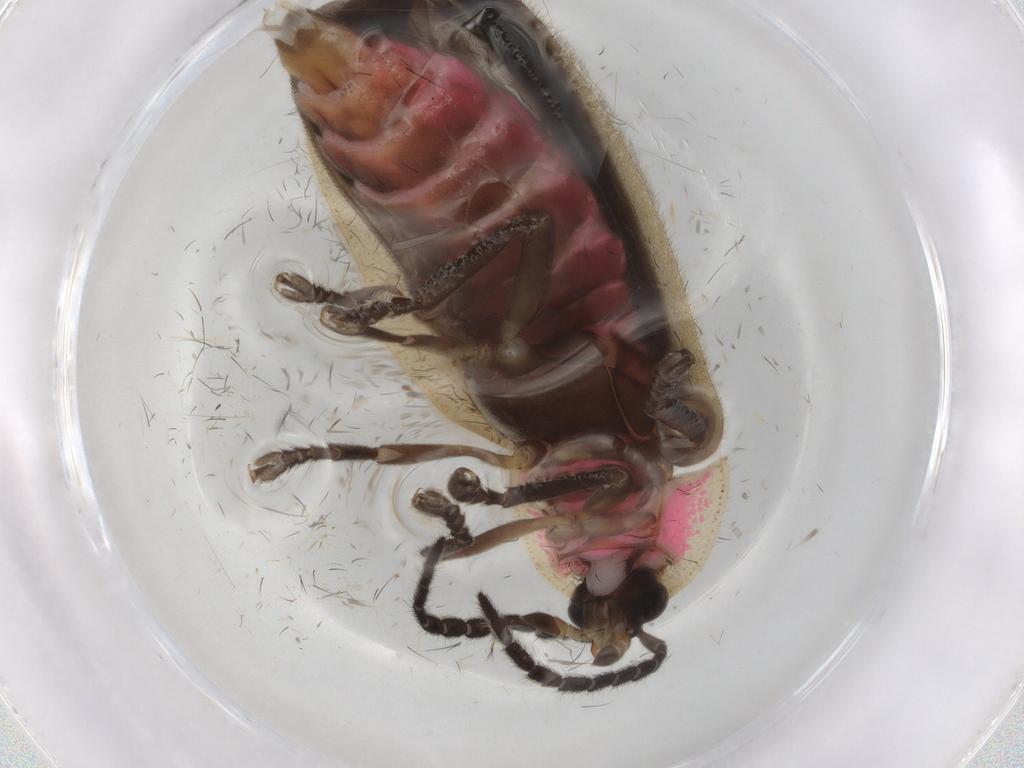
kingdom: Animalia
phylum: Arthropoda
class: Insecta
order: Coleoptera
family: Lampyridae
